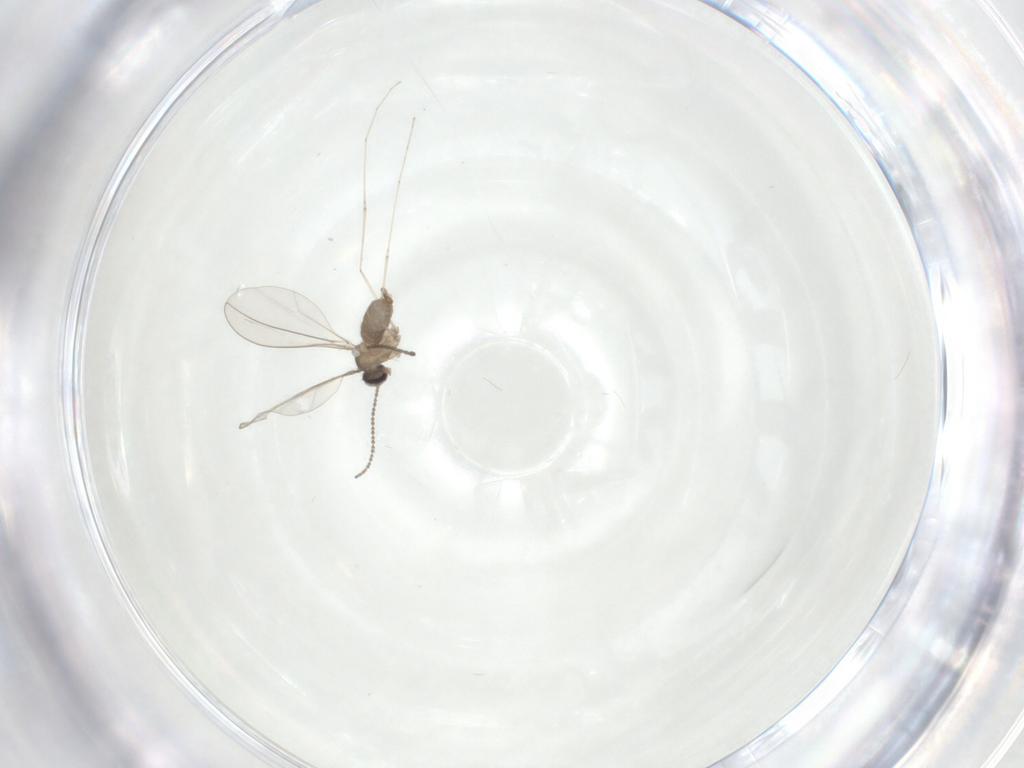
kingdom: Animalia
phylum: Arthropoda
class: Insecta
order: Diptera
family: Cecidomyiidae
